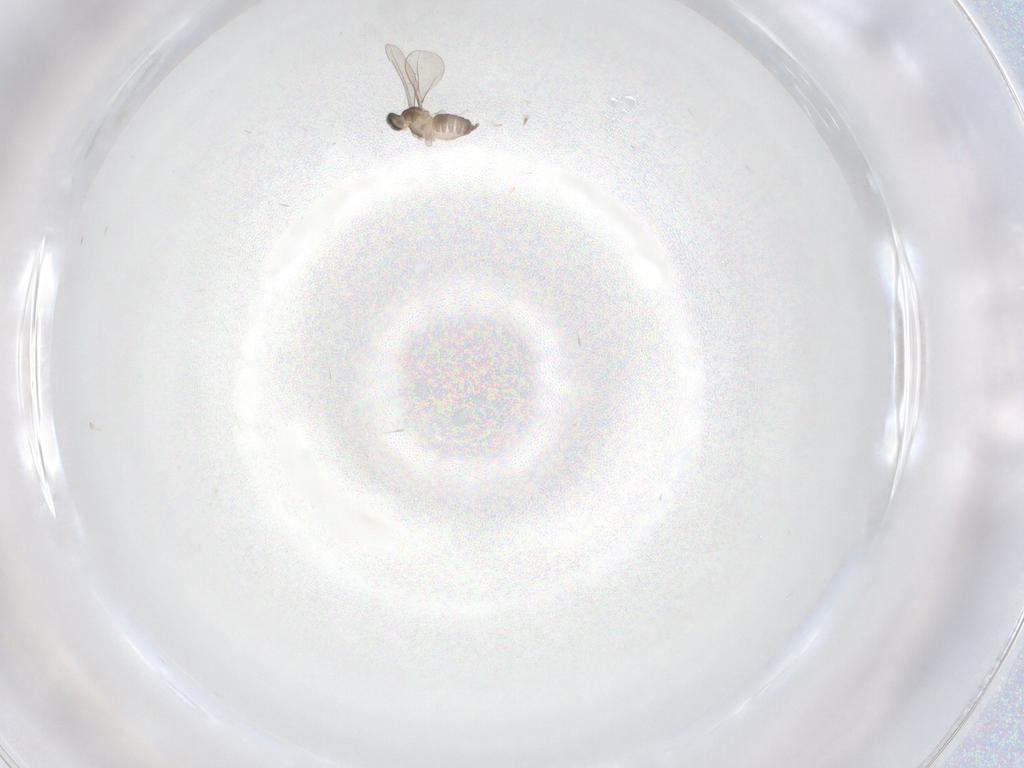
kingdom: Animalia
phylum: Arthropoda
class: Insecta
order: Diptera
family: Cecidomyiidae
